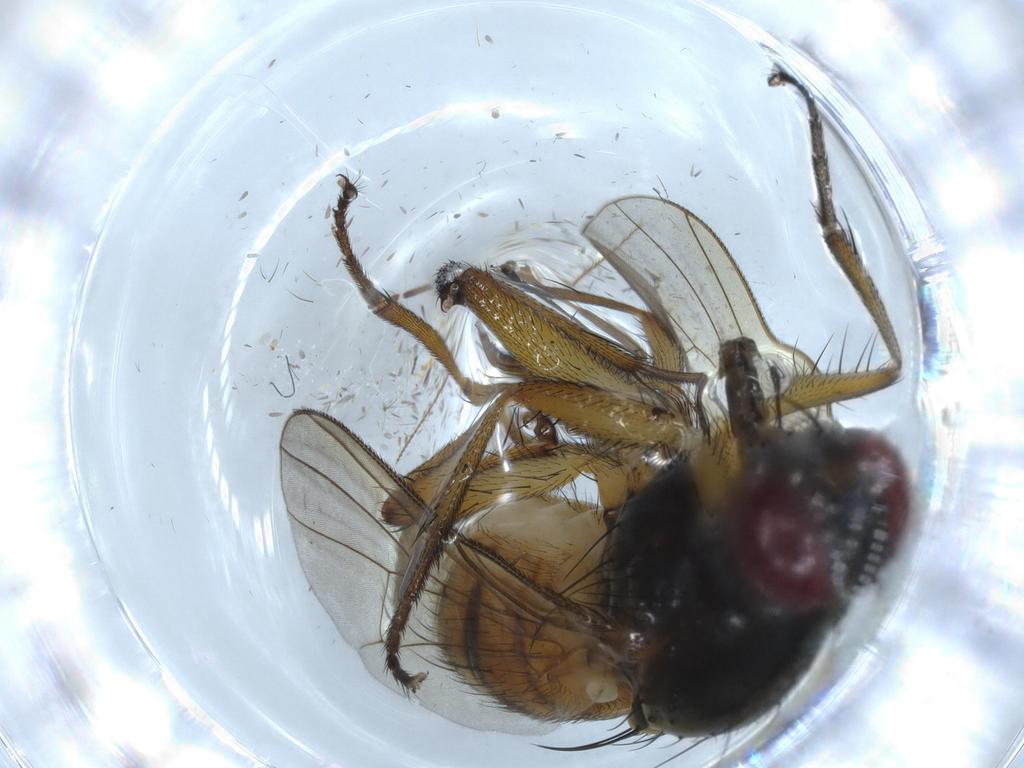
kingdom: Animalia
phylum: Arthropoda
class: Insecta
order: Diptera
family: Muscidae
